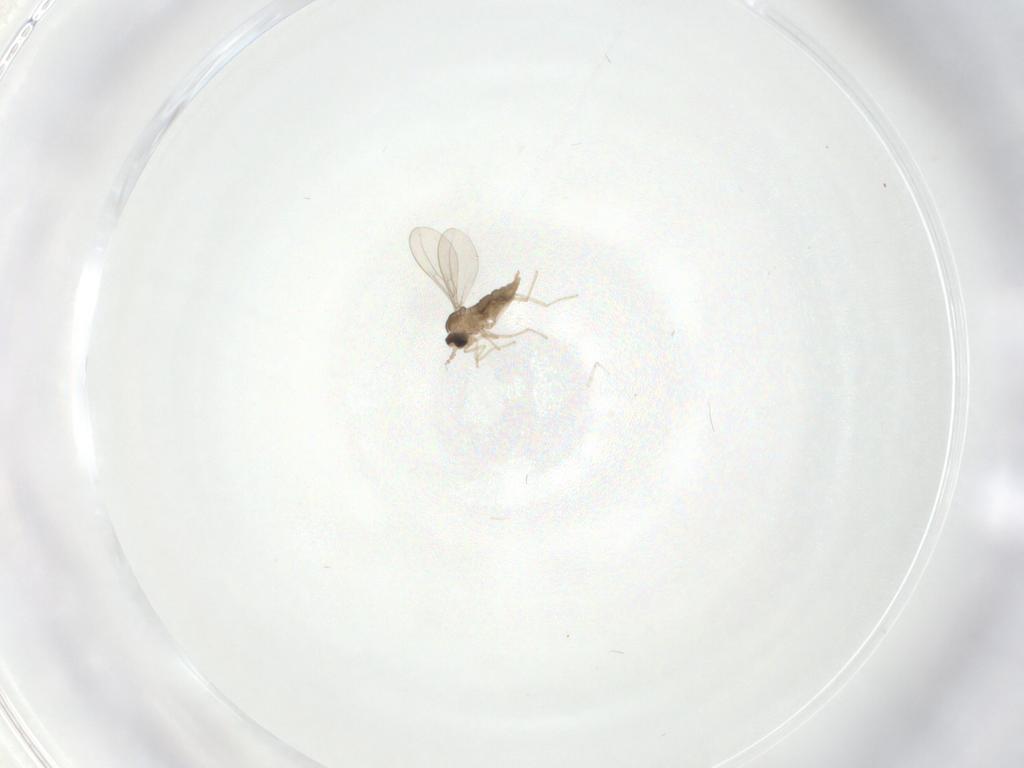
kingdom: Animalia
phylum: Arthropoda
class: Insecta
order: Diptera
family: Cecidomyiidae
